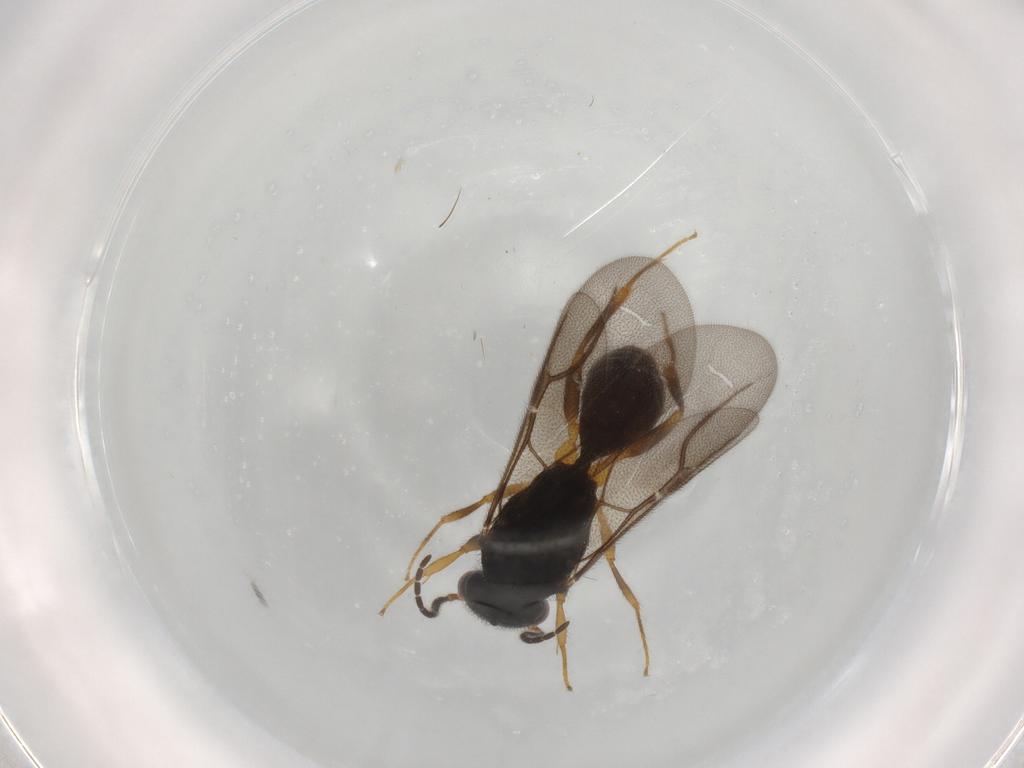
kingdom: Animalia
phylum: Arthropoda
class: Insecta
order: Hymenoptera
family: Bethylidae
